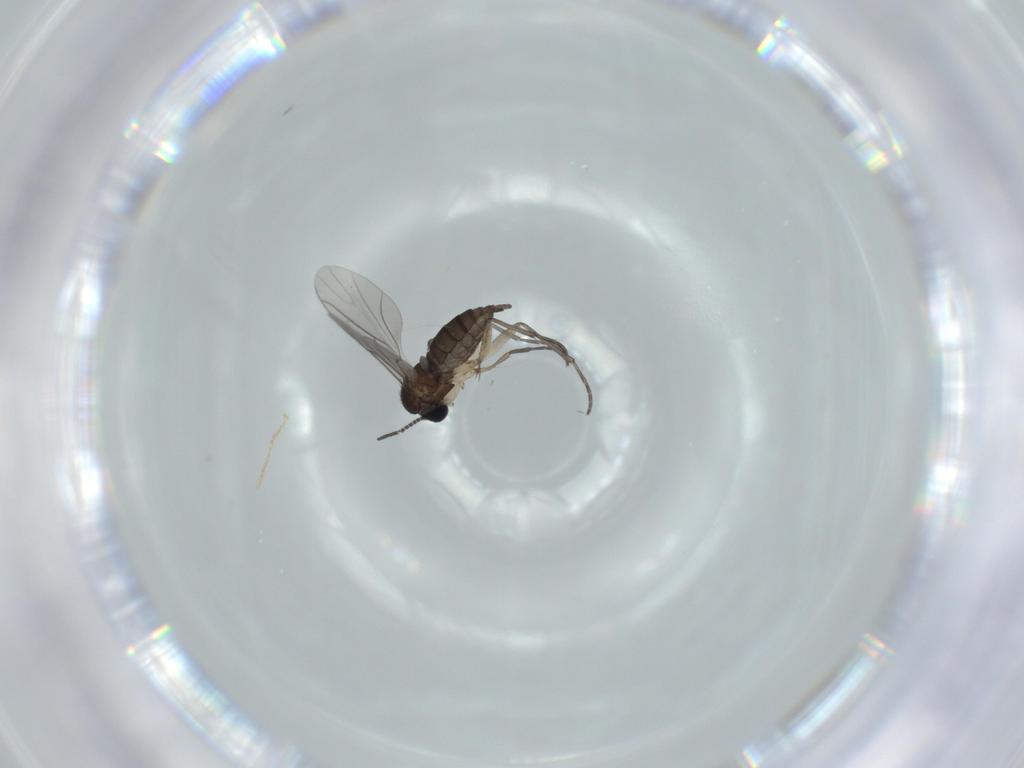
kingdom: Animalia
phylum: Arthropoda
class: Insecta
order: Diptera
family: Sciaridae
